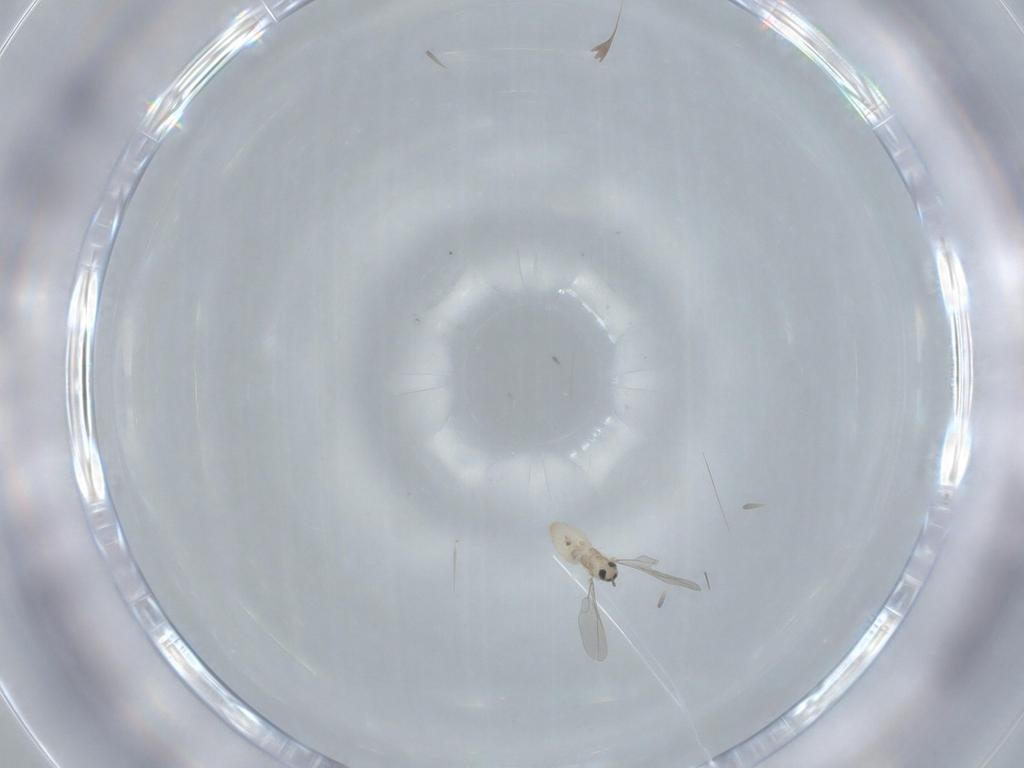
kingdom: Animalia
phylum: Arthropoda
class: Insecta
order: Diptera
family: Cecidomyiidae
